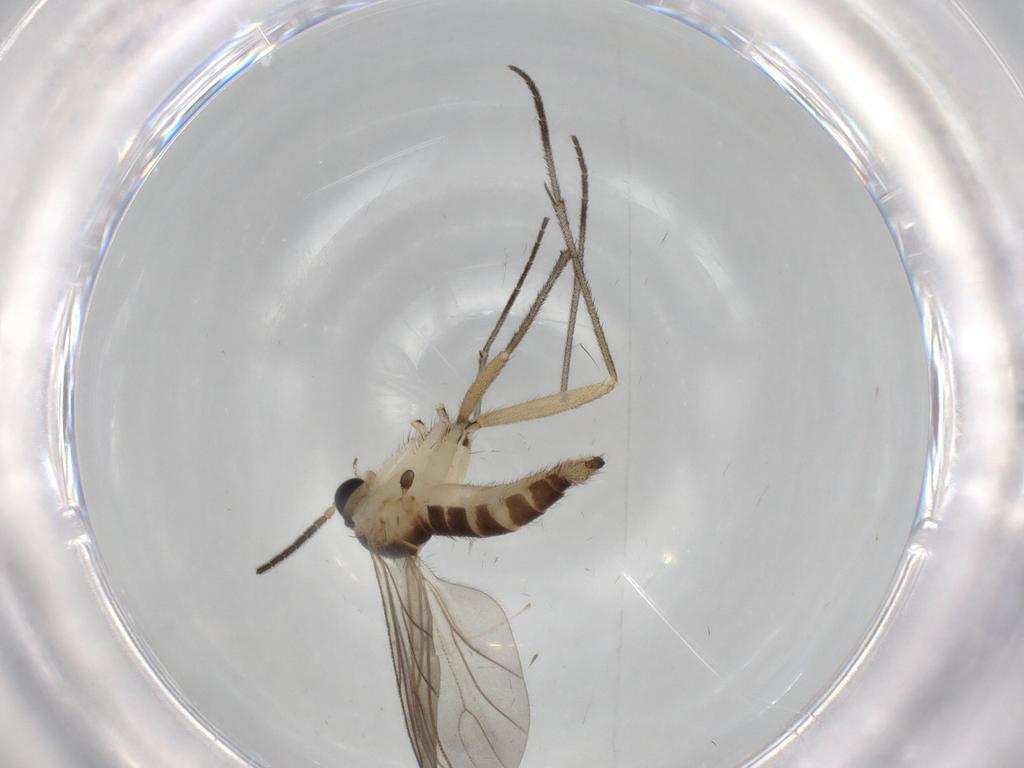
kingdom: Animalia
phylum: Arthropoda
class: Insecta
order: Diptera
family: Sciaridae
